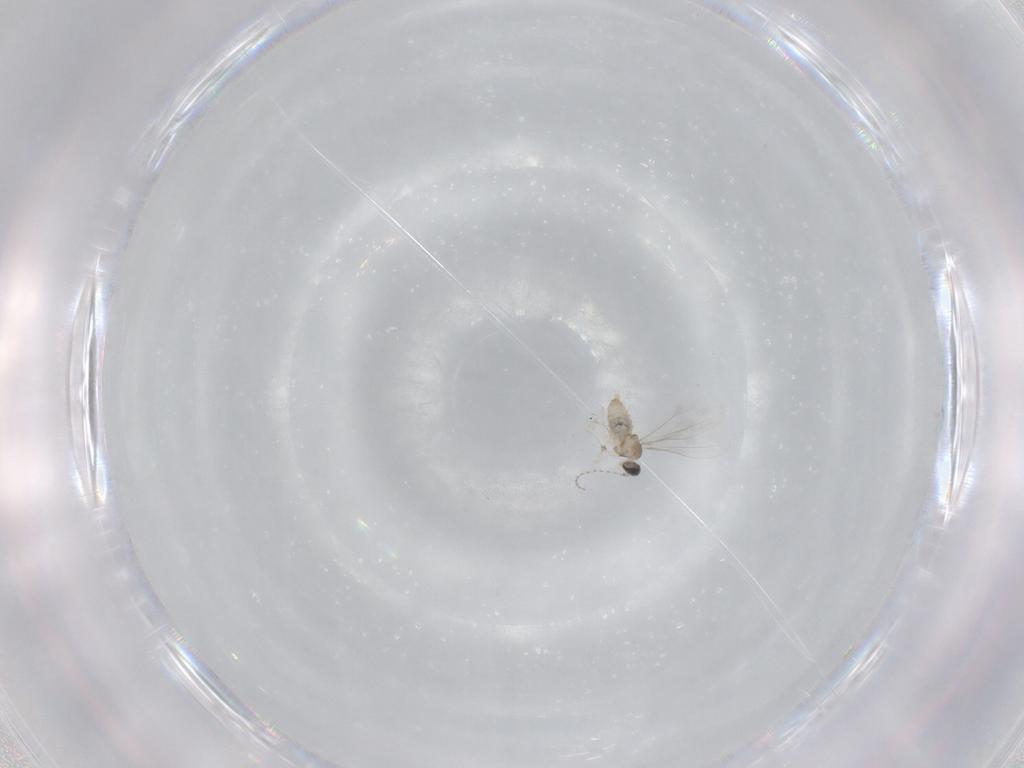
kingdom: Animalia
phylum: Arthropoda
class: Insecta
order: Diptera
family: Cecidomyiidae
